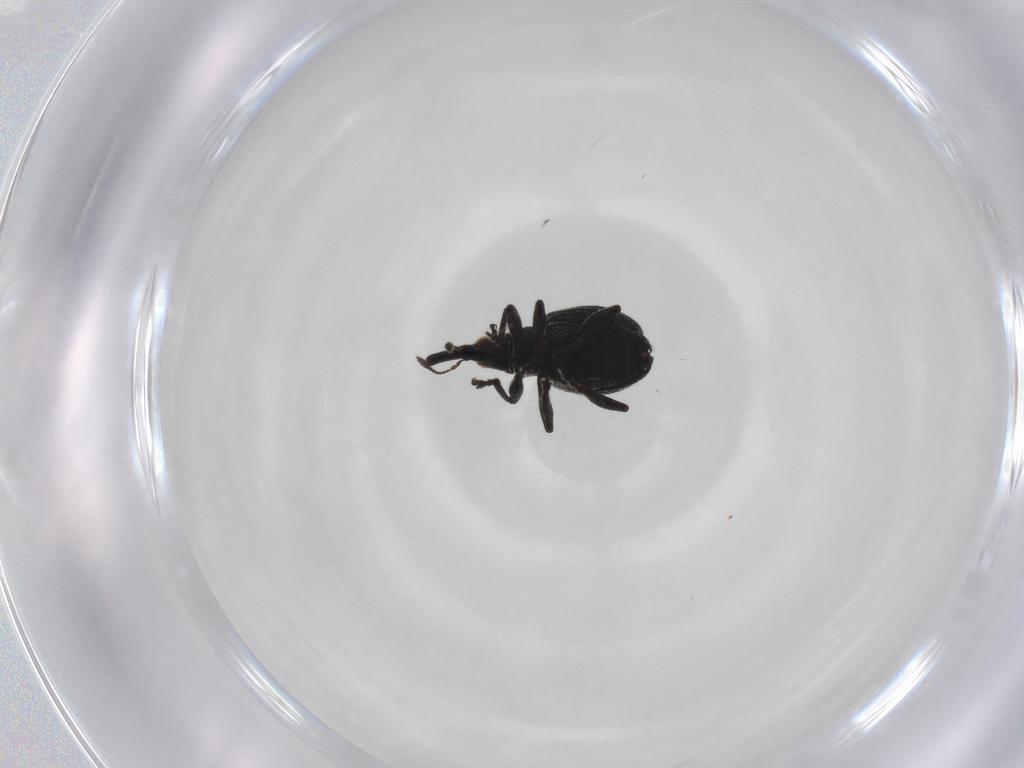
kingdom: Animalia
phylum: Arthropoda
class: Insecta
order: Coleoptera
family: Brentidae
